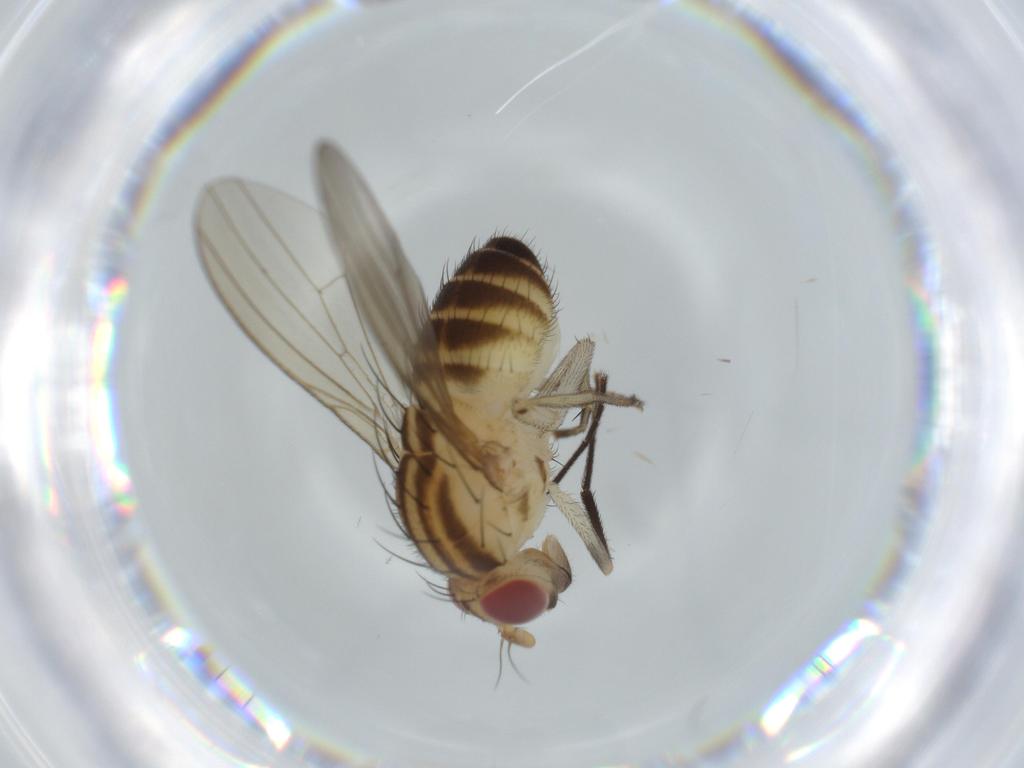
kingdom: Animalia
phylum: Arthropoda
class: Insecta
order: Diptera
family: Lauxaniidae
